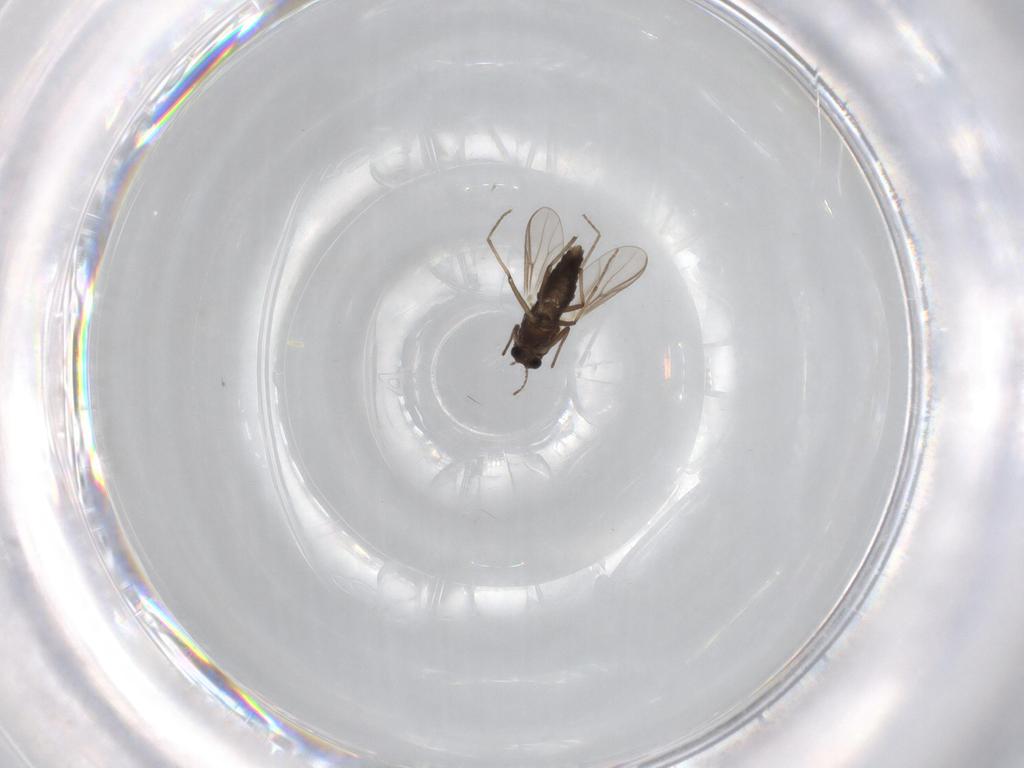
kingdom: Animalia
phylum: Arthropoda
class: Insecta
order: Diptera
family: Chironomidae
